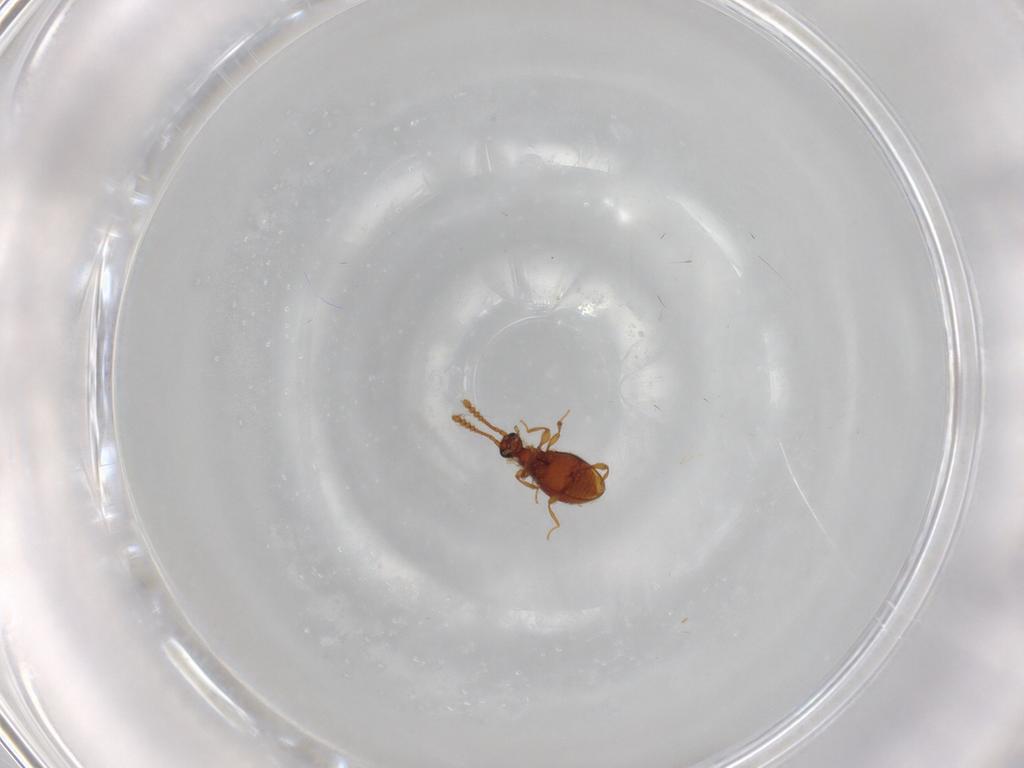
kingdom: Animalia
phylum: Arthropoda
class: Insecta
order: Coleoptera
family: Staphylinidae
